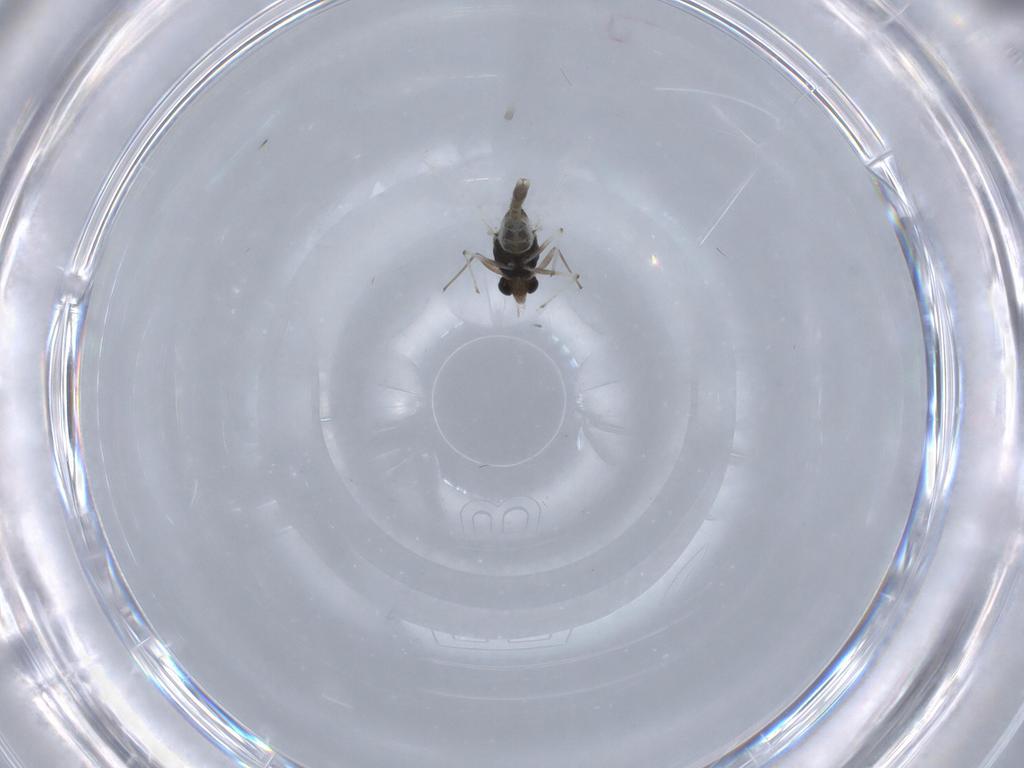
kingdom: Animalia
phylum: Arthropoda
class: Insecta
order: Diptera
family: Chironomidae
